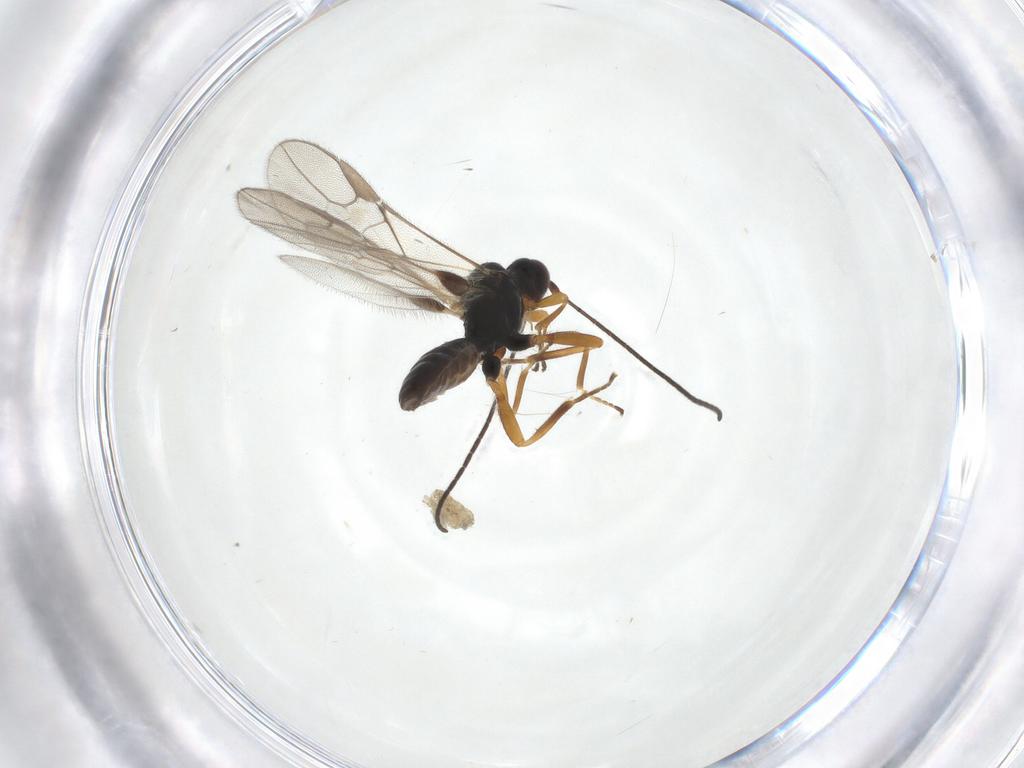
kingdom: Animalia
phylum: Arthropoda
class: Insecta
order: Hymenoptera
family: Braconidae
